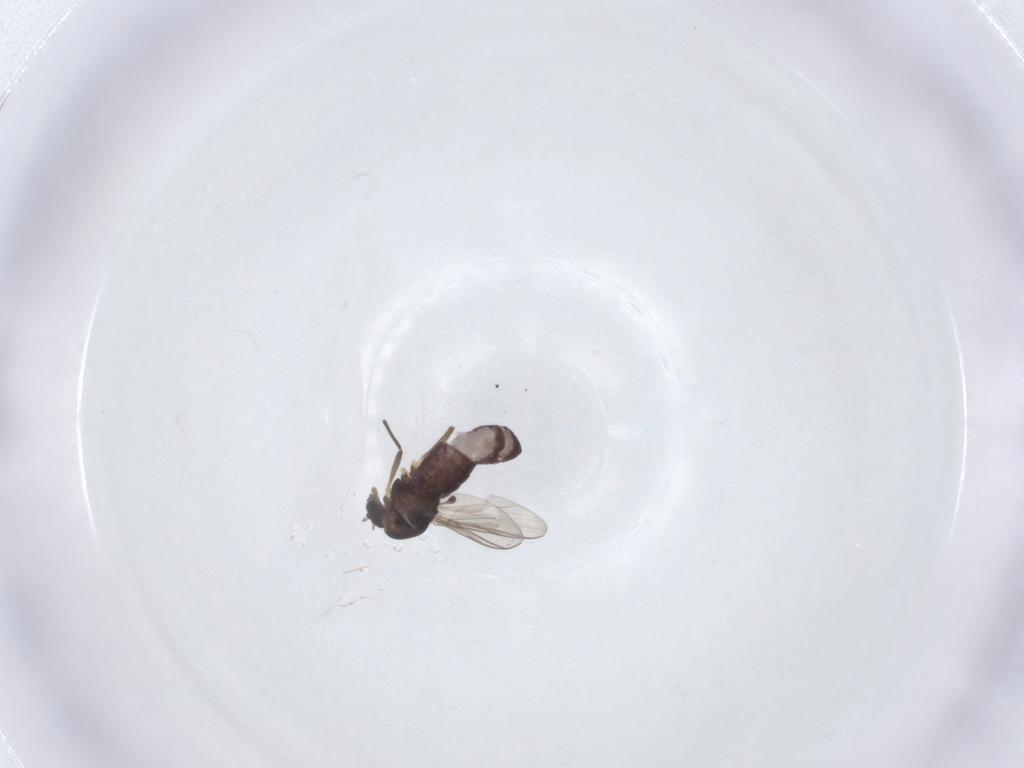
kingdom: Animalia
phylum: Arthropoda
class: Insecta
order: Diptera
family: Chironomidae
